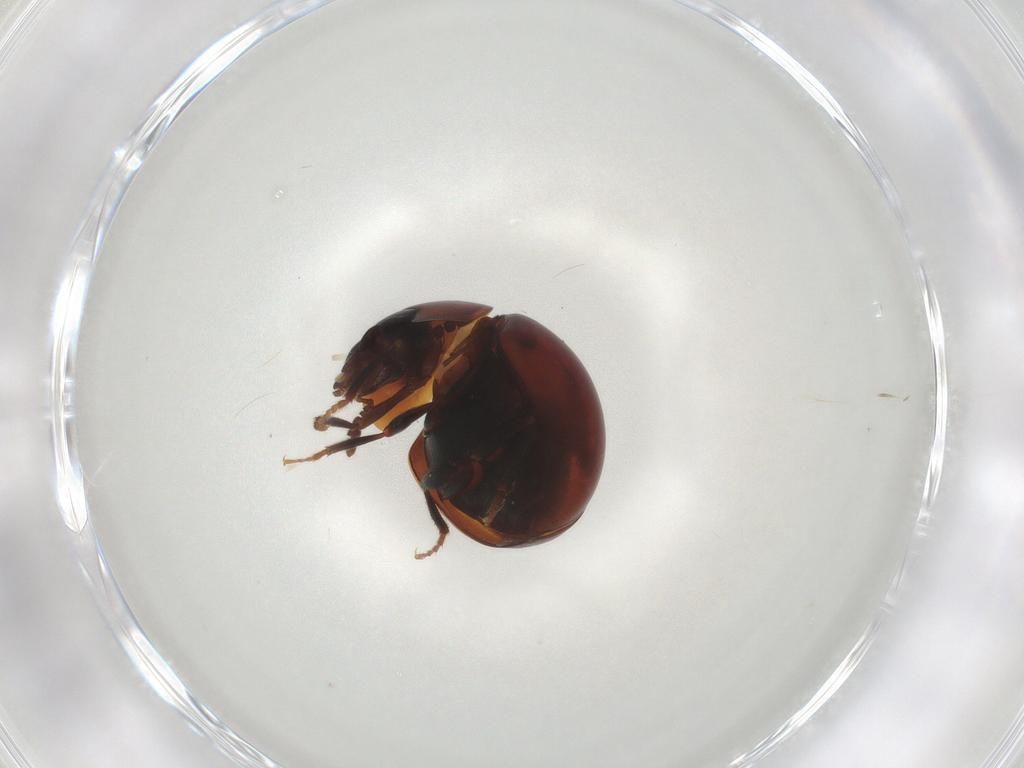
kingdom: Animalia
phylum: Arthropoda
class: Insecta
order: Coleoptera
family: Leiodidae
